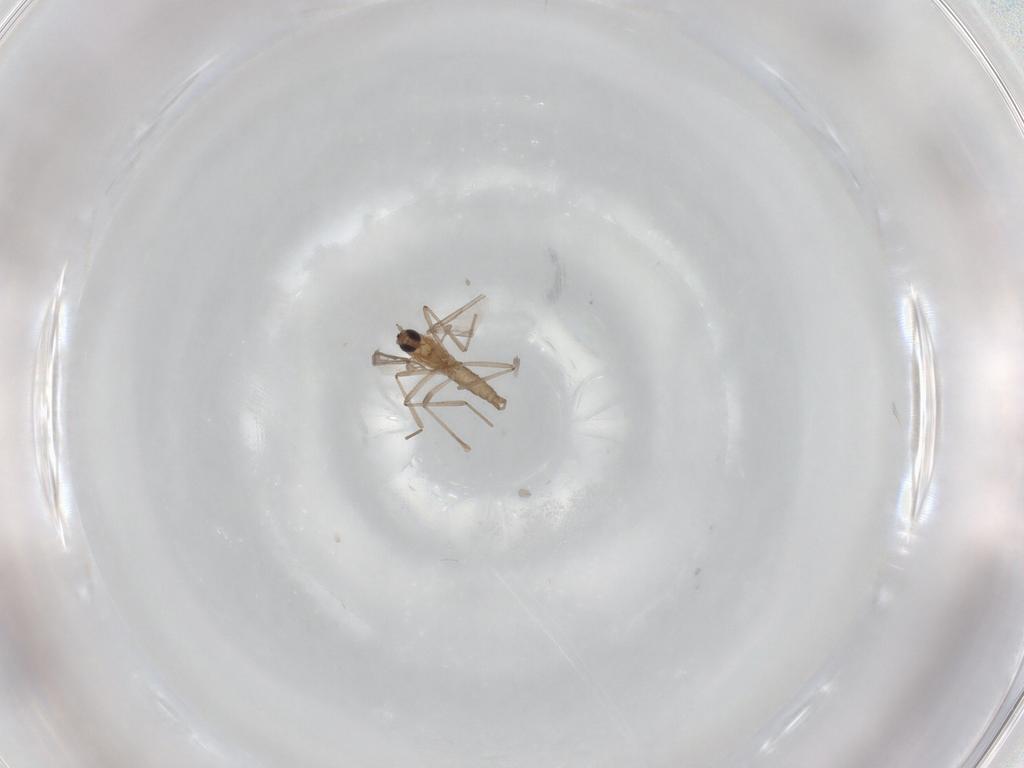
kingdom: Animalia
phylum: Arthropoda
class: Insecta
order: Diptera
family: Cecidomyiidae
